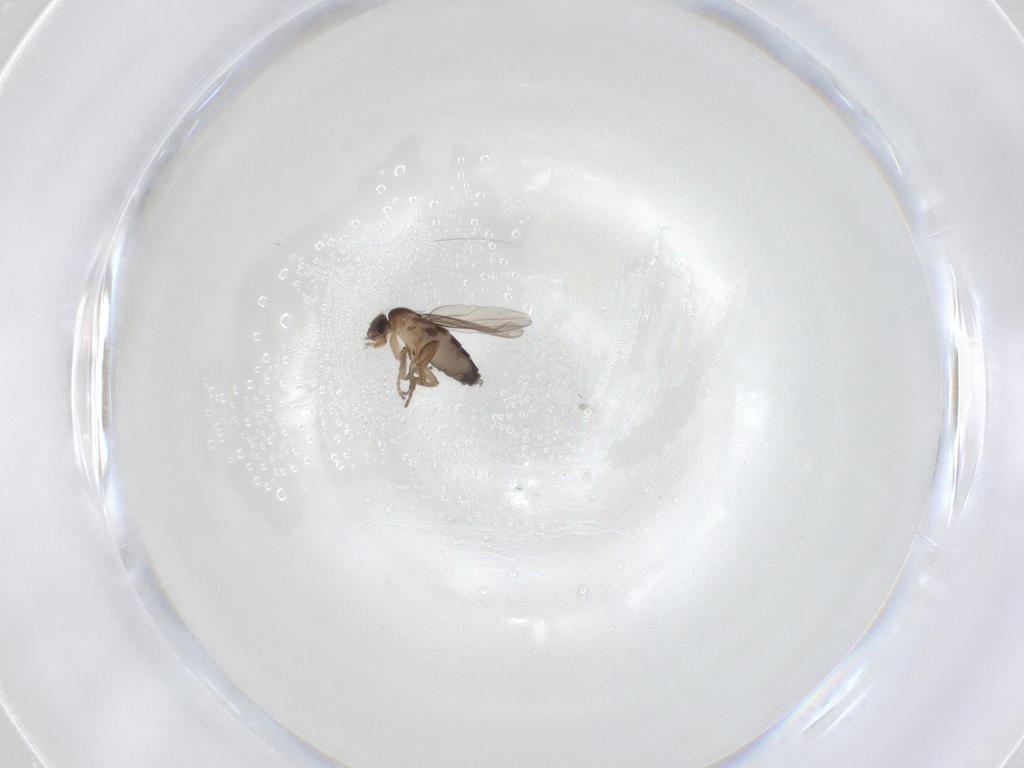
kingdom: Animalia
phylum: Arthropoda
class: Insecta
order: Diptera
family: Phoridae
